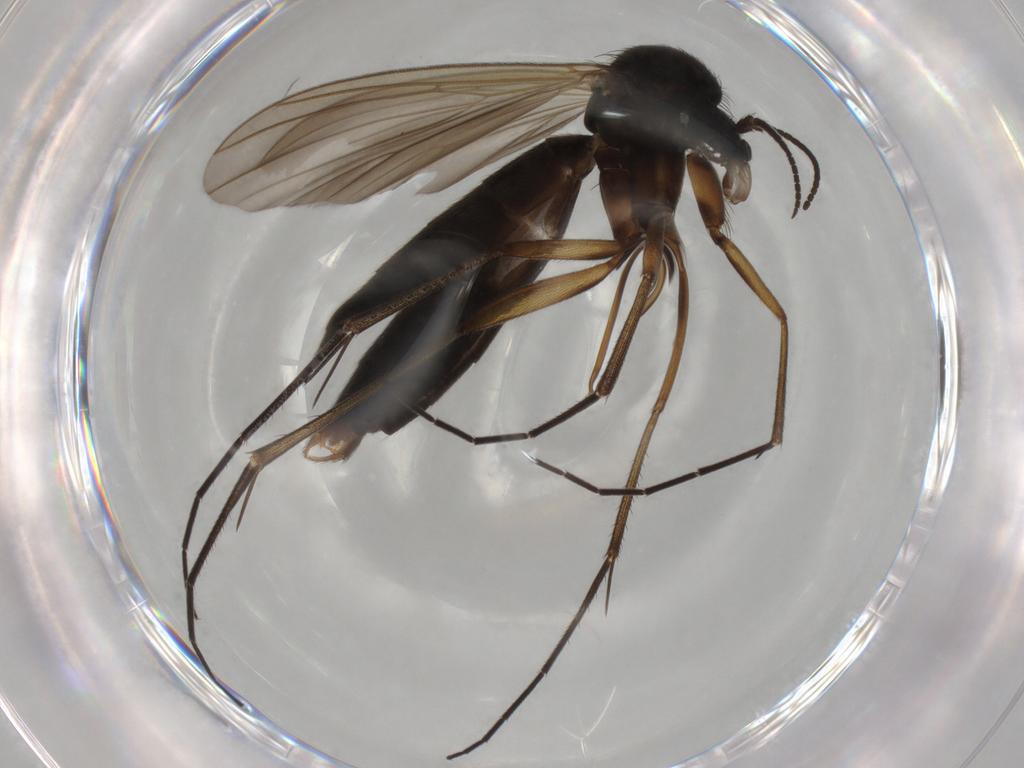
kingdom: Animalia
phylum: Arthropoda
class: Insecta
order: Diptera
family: Mycetophilidae
